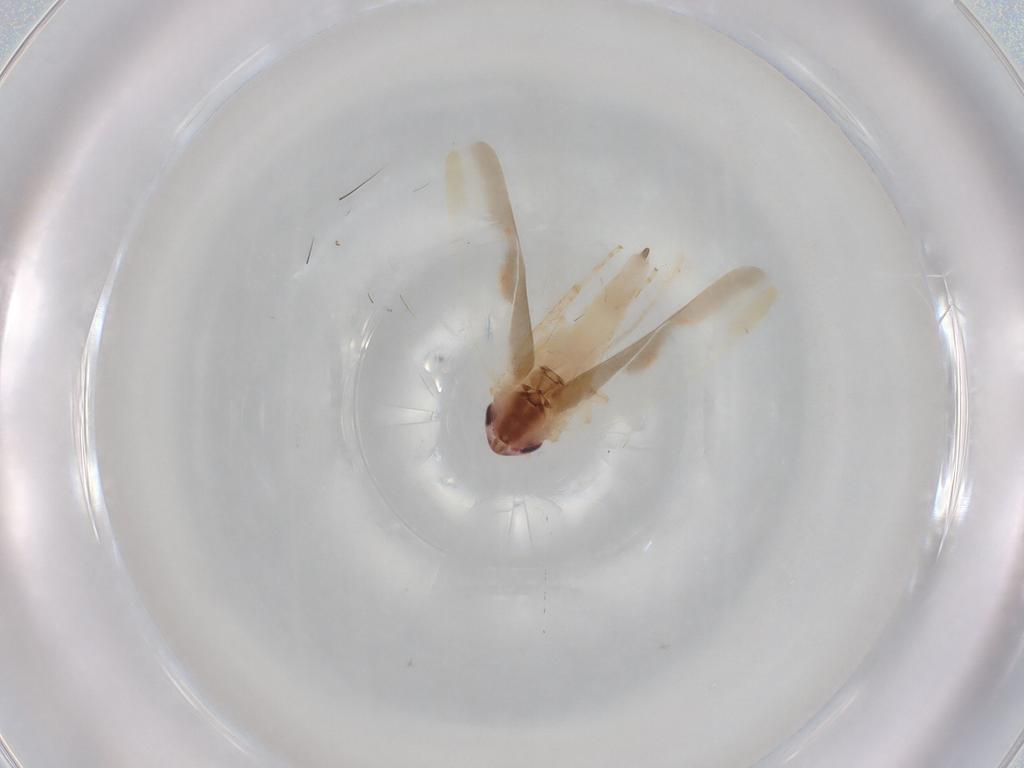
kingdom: Animalia
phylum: Arthropoda
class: Insecta
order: Hemiptera
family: Cicadellidae
